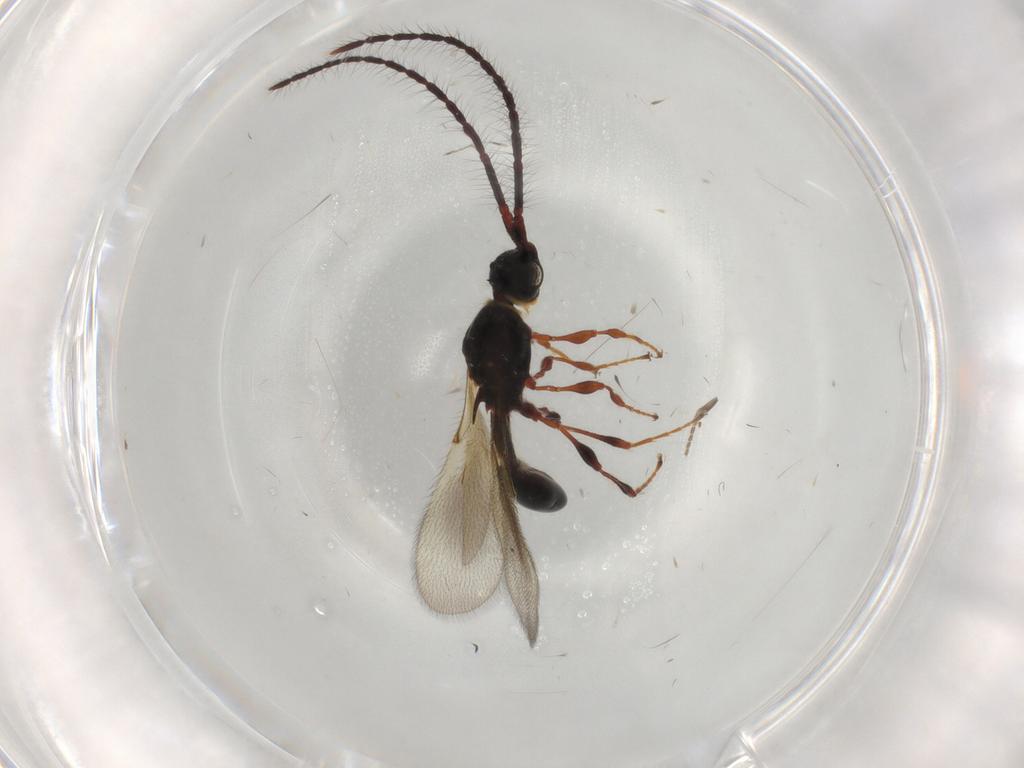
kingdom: Animalia
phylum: Arthropoda
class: Insecta
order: Hymenoptera
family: Diapriidae
